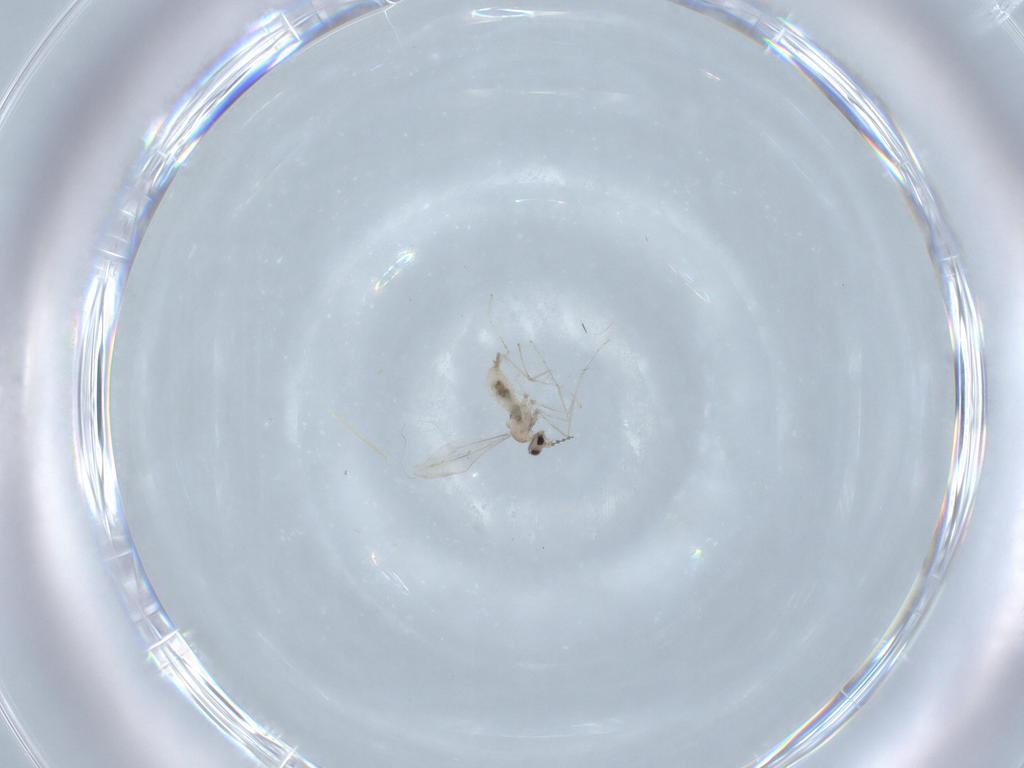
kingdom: Animalia
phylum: Arthropoda
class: Insecta
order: Diptera
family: Cecidomyiidae
